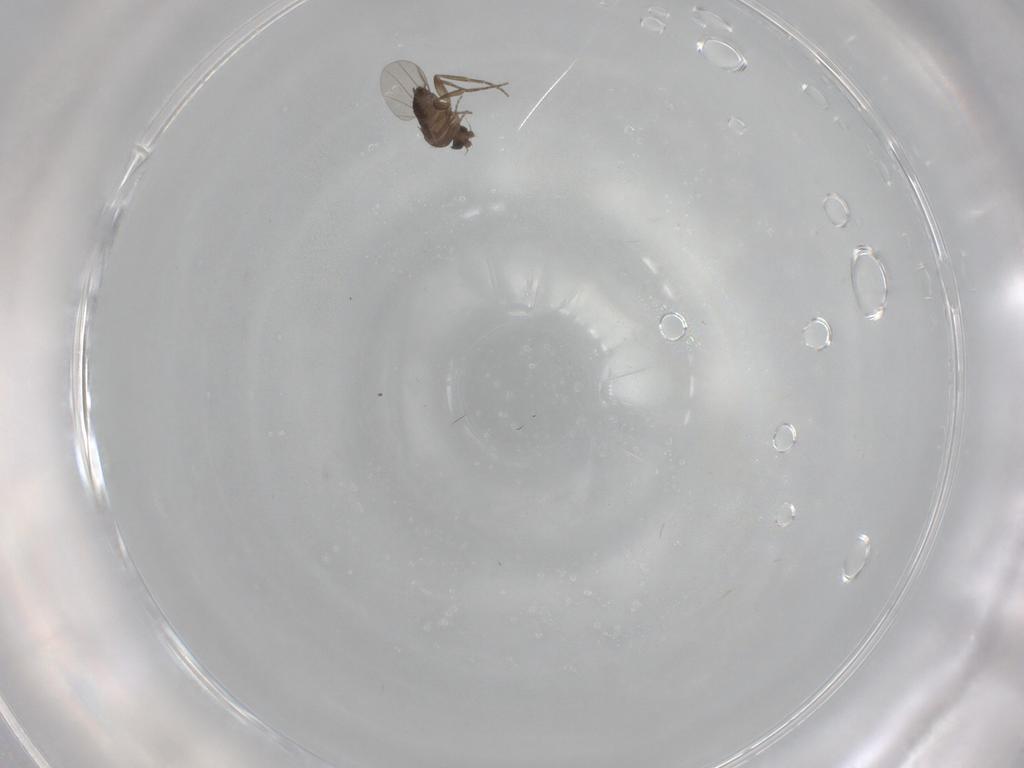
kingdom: Animalia
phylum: Arthropoda
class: Insecta
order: Diptera
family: Phoridae
